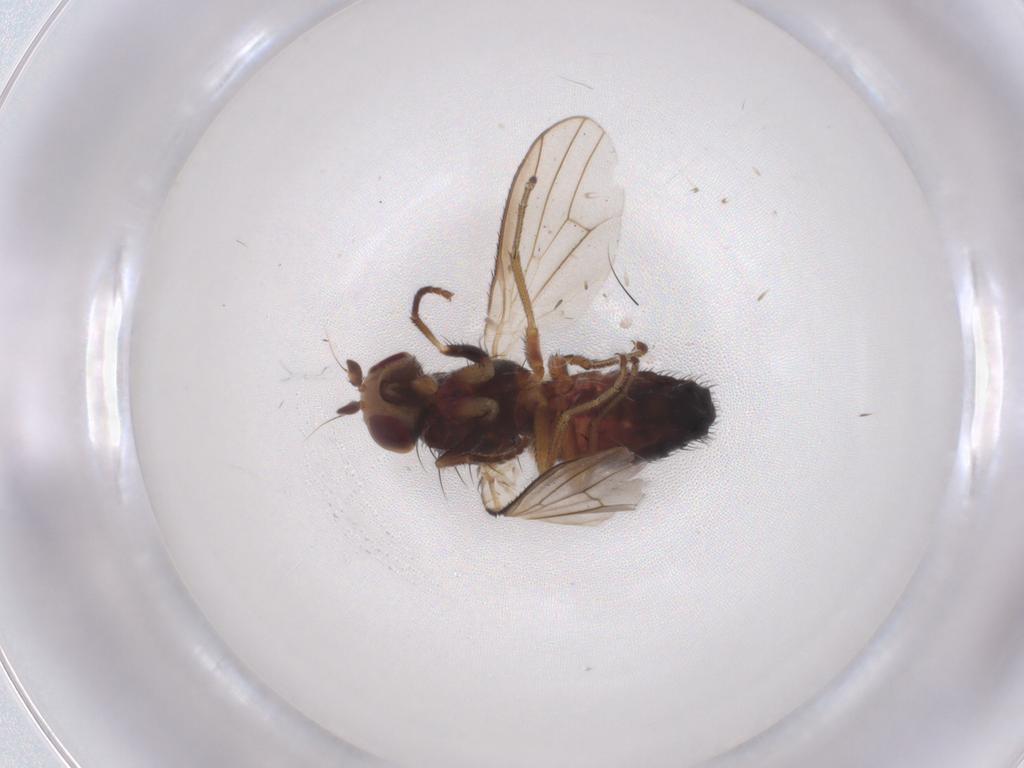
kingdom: Animalia
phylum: Arthropoda
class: Insecta
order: Diptera
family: Heleomyzidae
